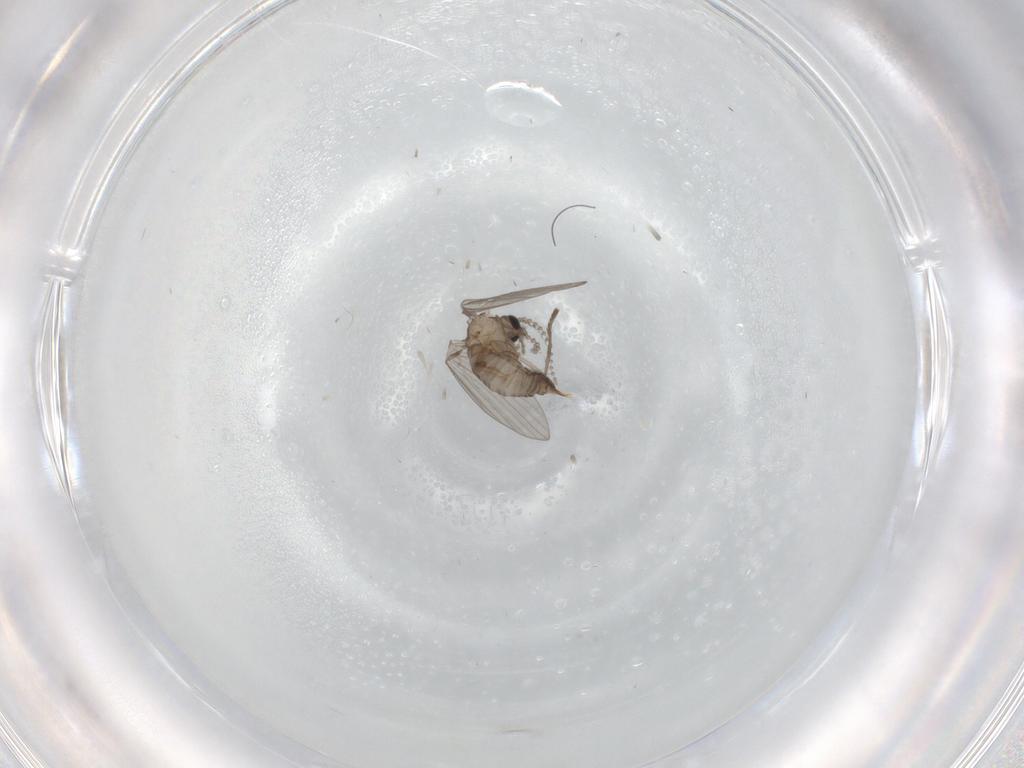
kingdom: Animalia
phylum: Arthropoda
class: Insecta
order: Diptera
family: Psychodidae
